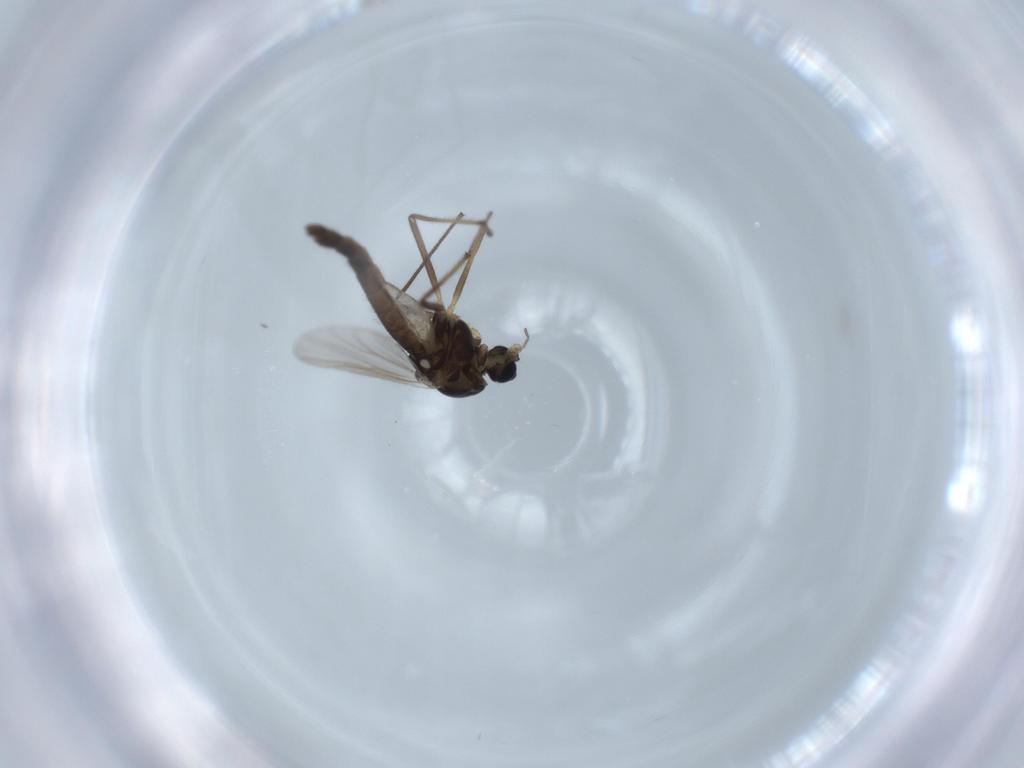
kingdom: Animalia
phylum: Arthropoda
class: Insecta
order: Diptera
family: Chironomidae
